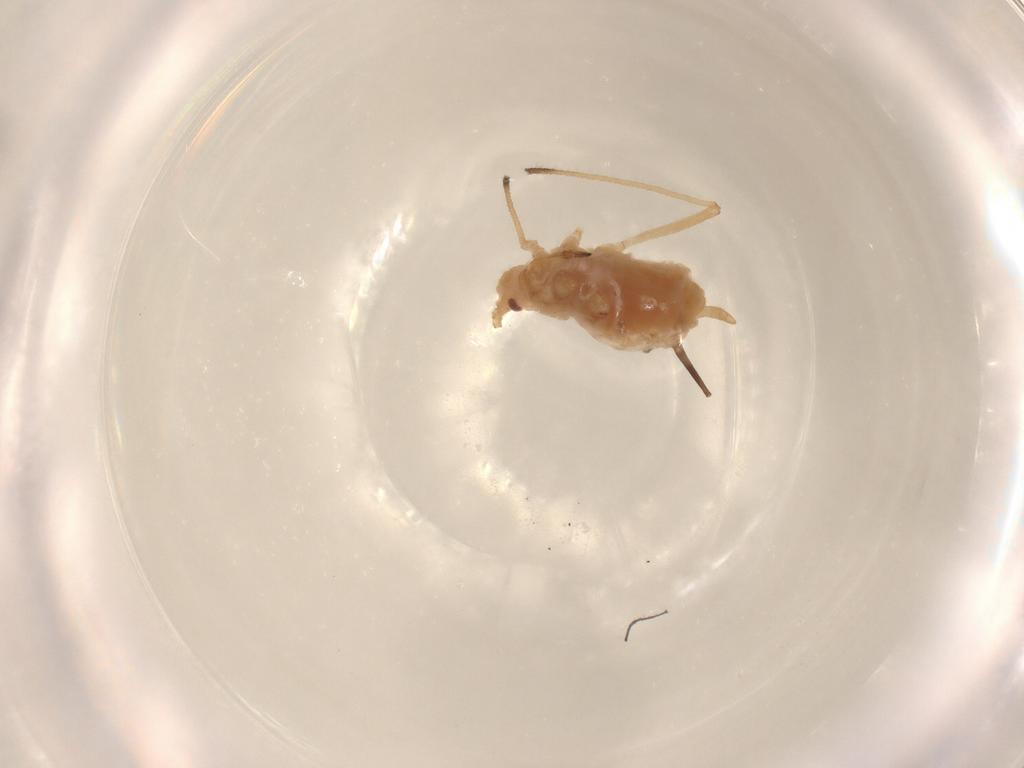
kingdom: Animalia
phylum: Arthropoda
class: Insecta
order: Hemiptera
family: Aphididae
